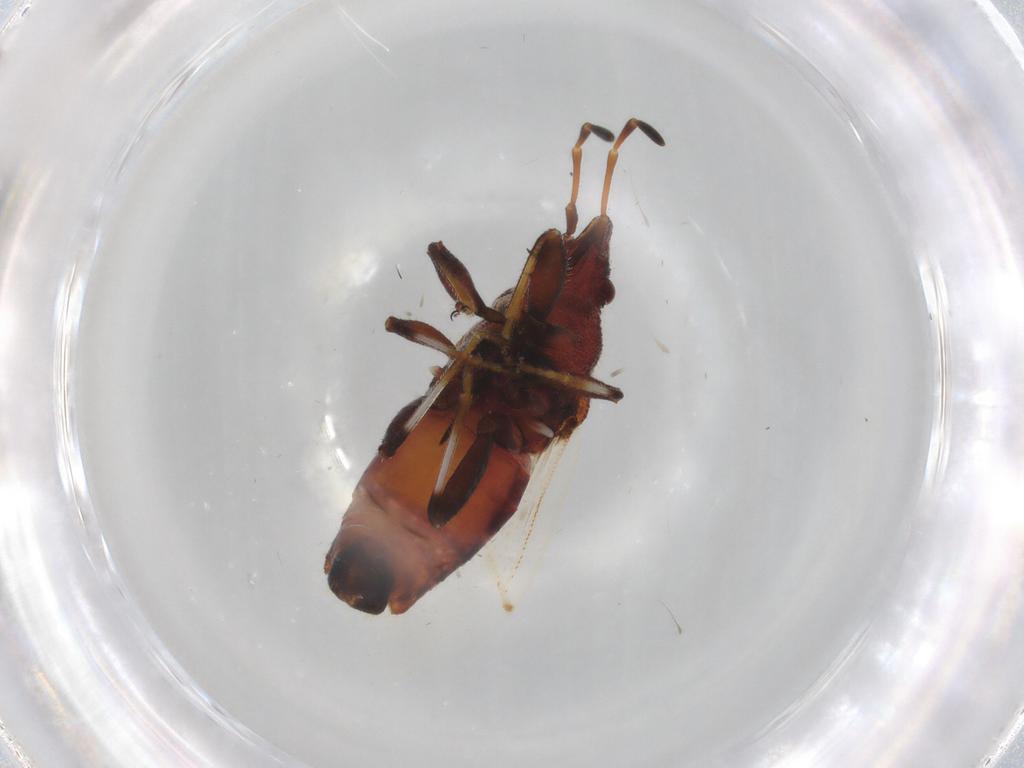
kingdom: Animalia
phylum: Arthropoda
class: Insecta
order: Hemiptera
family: Oxycarenidae
